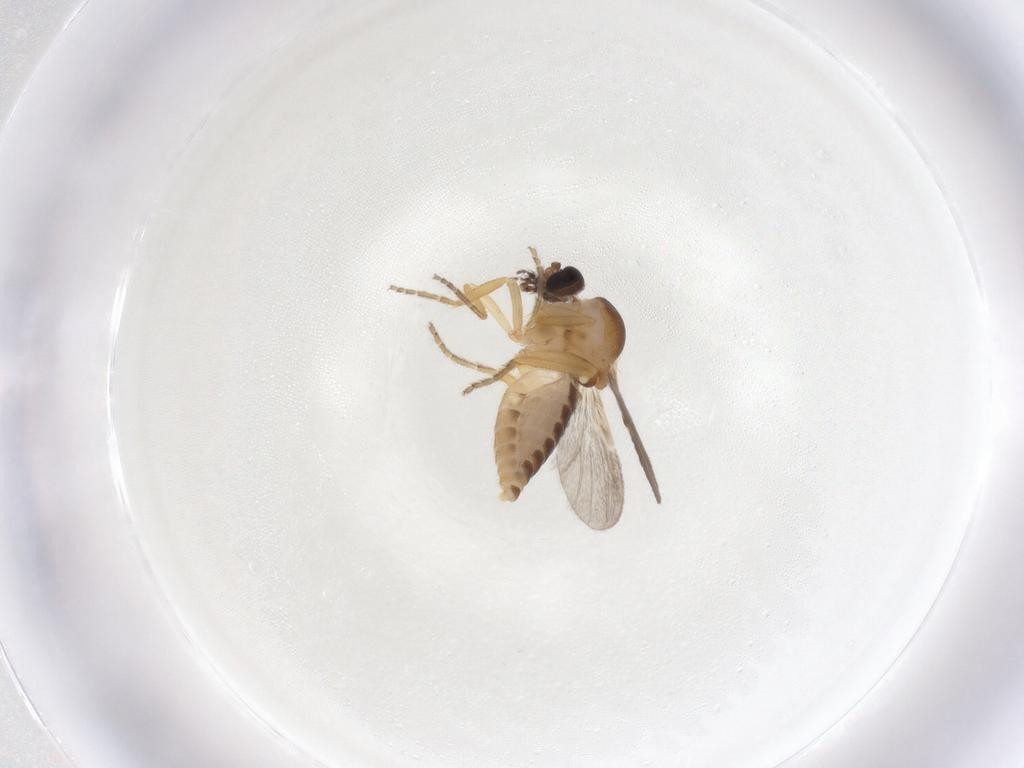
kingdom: Animalia
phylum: Arthropoda
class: Insecta
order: Diptera
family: Ceratopogonidae
